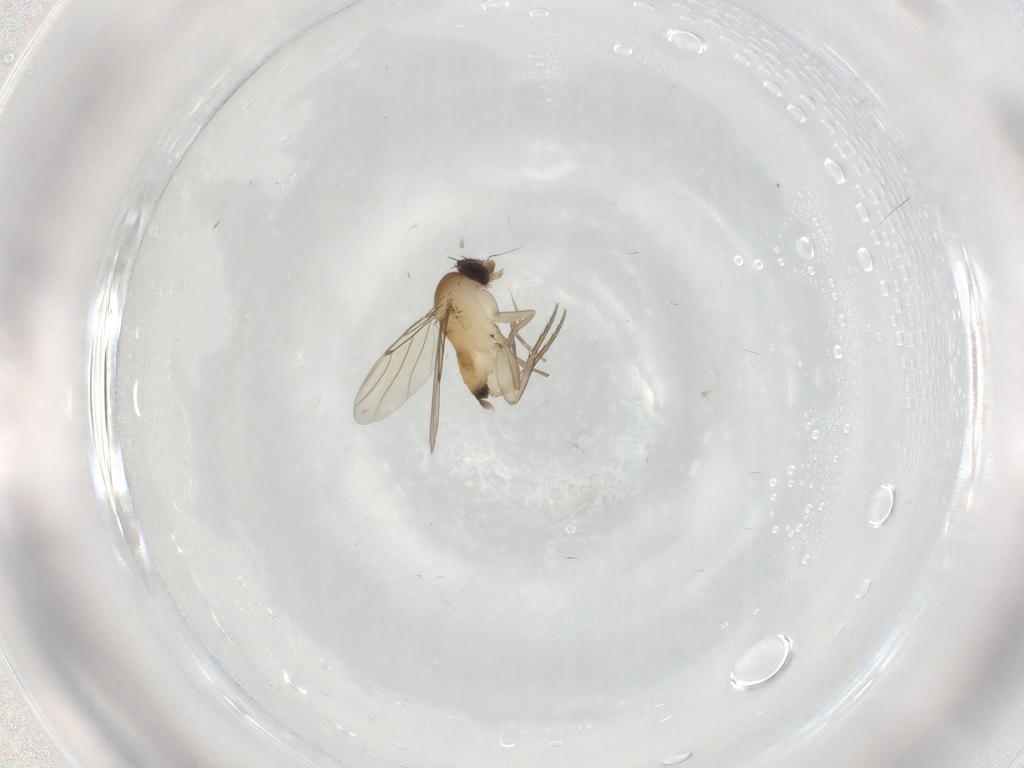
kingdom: Animalia
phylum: Arthropoda
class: Insecta
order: Diptera
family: Phoridae
